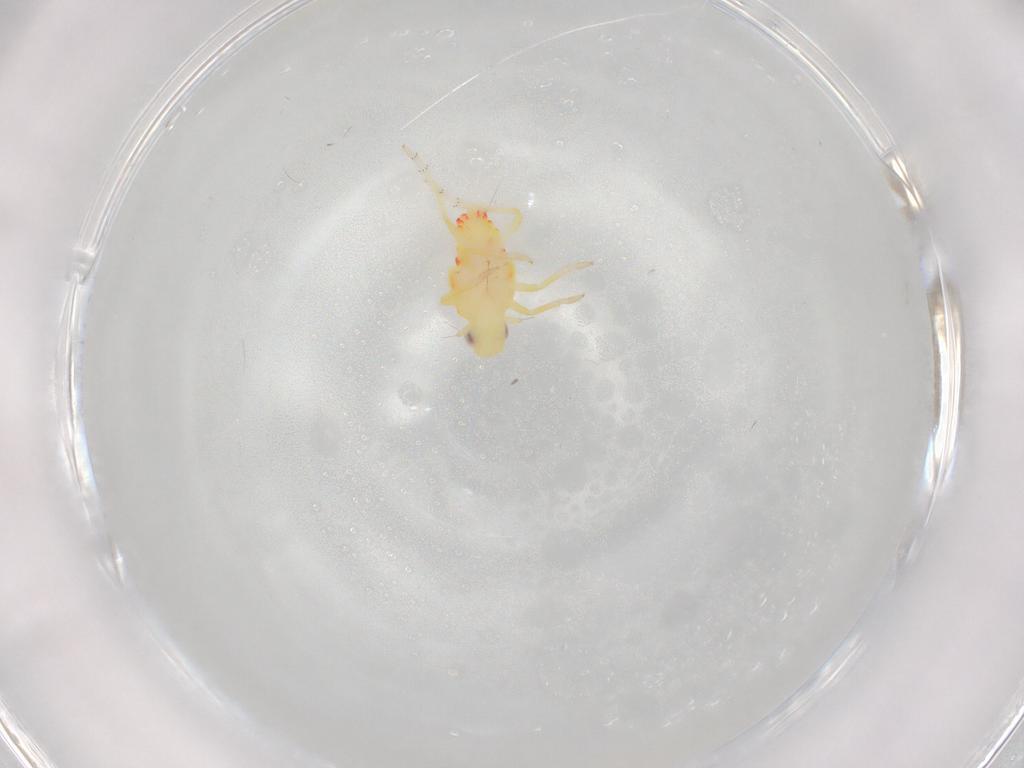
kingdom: Animalia
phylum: Arthropoda
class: Insecta
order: Hemiptera
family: Tropiduchidae
